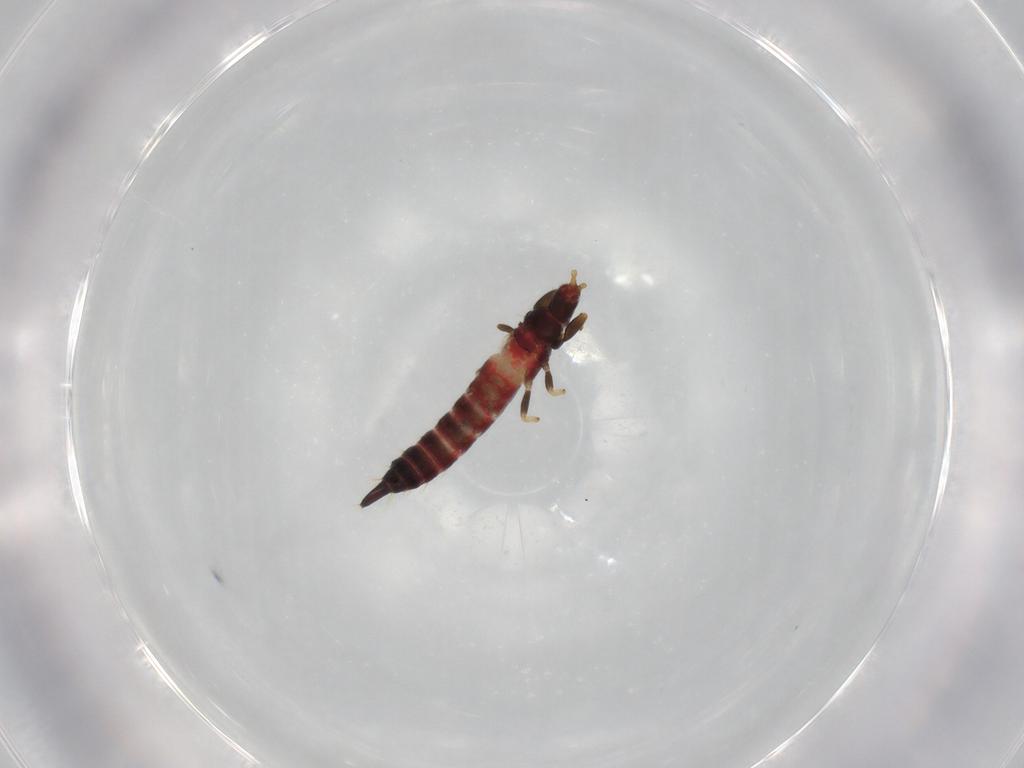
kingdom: Animalia
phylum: Arthropoda
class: Insecta
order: Thysanoptera
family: Phlaeothripidae
